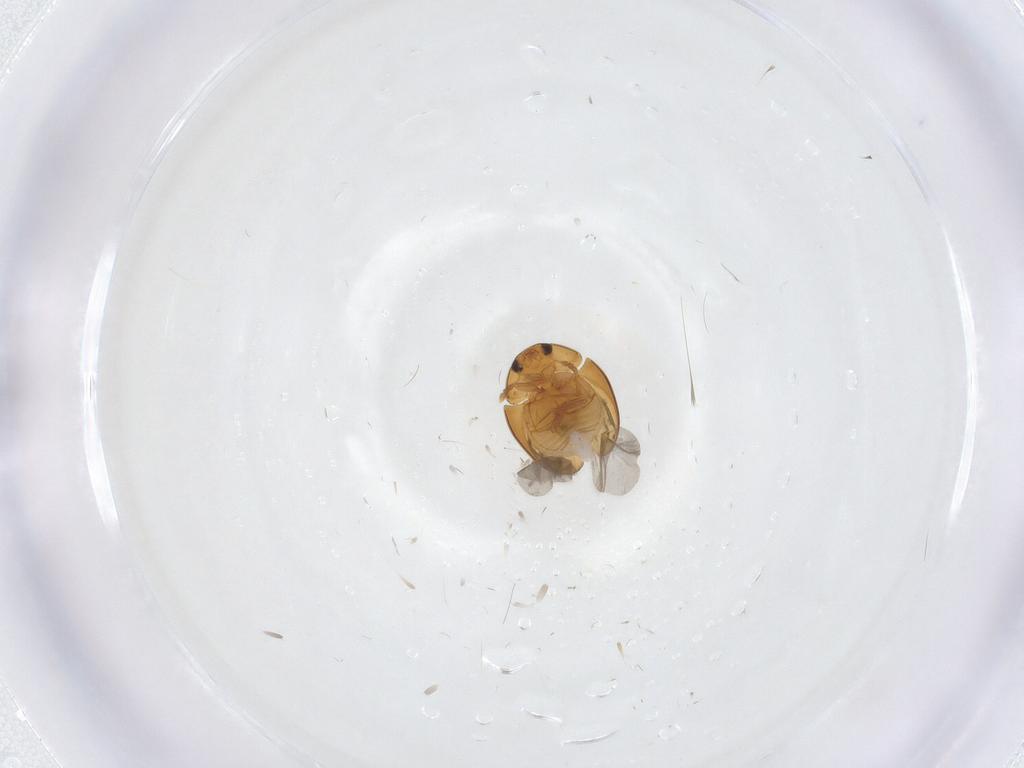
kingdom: Animalia
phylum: Arthropoda
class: Insecta
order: Coleoptera
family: Phalacridae
